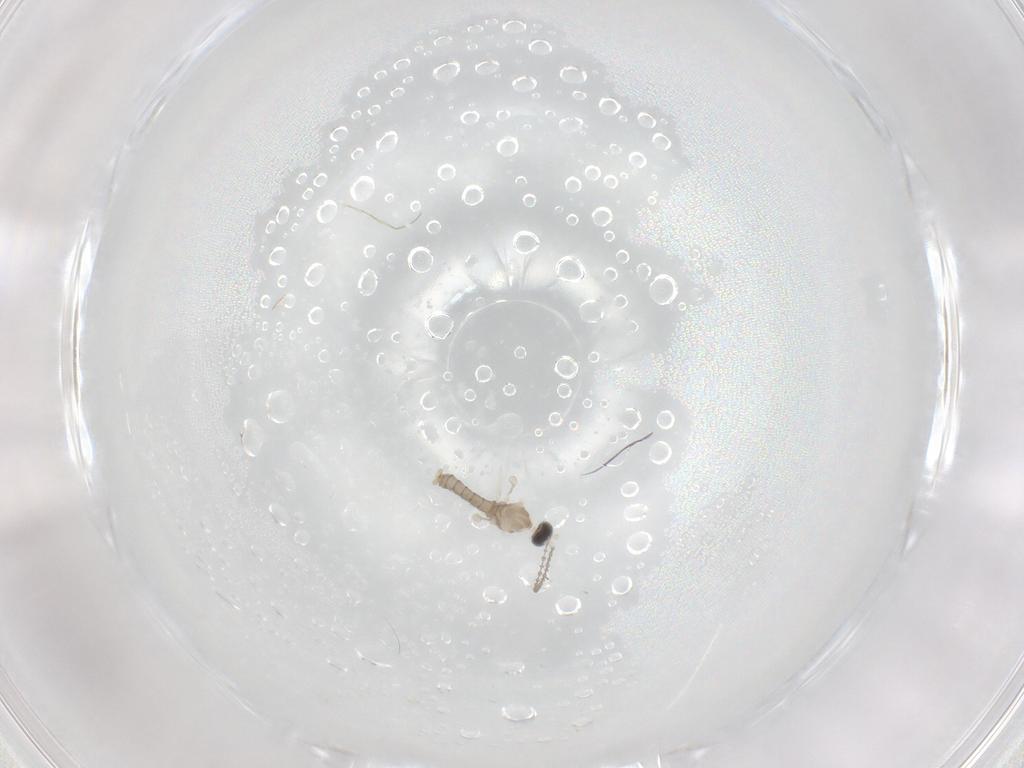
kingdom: Animalia
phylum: Arthropoda
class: Insecta
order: Diptera
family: Cecidomyiidae
